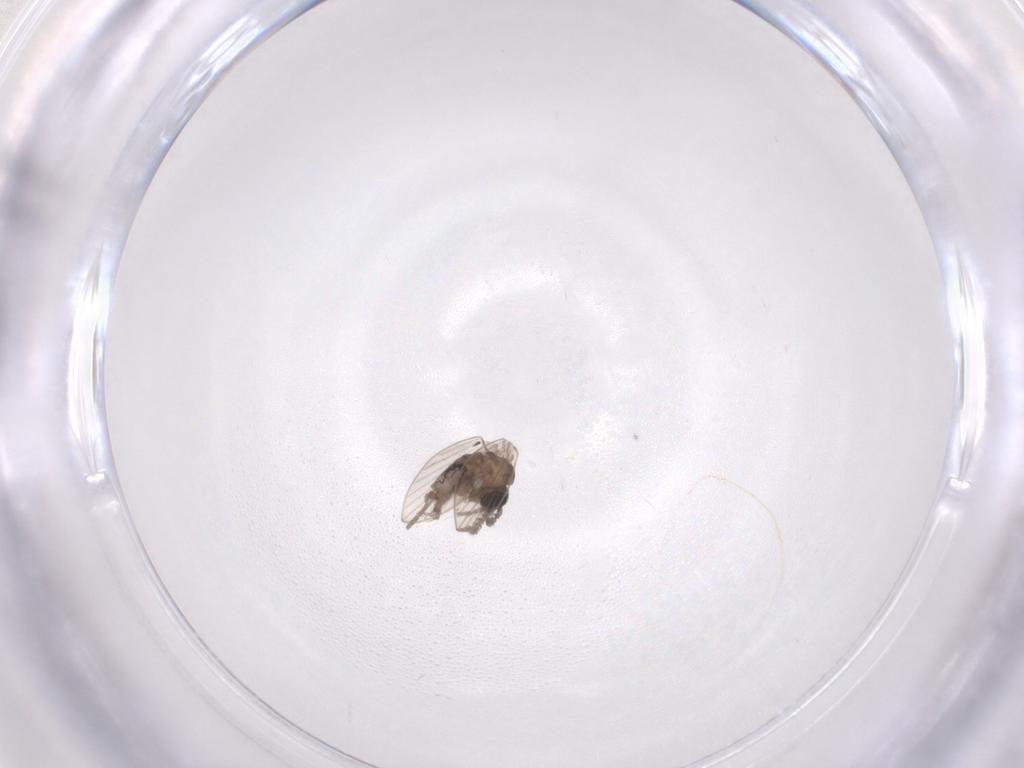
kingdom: Animalia
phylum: Arthropoda
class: Insecta
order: Diptera
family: Psychodidae
